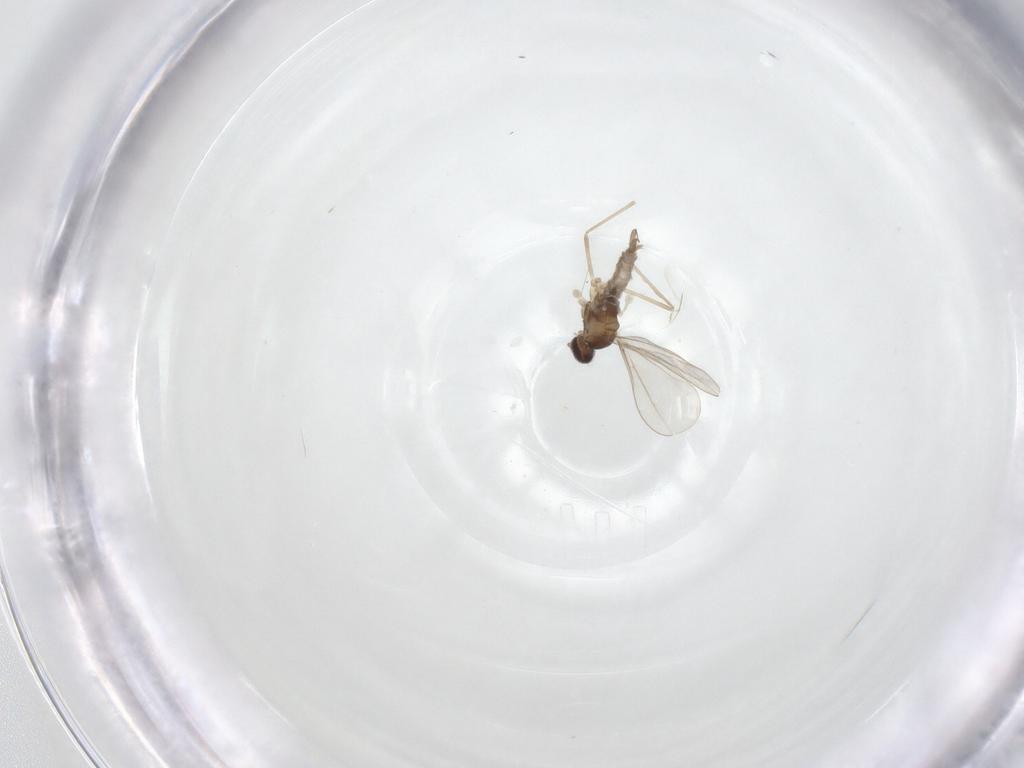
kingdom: Animalia
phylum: Arthropoda
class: Insecta
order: Diptera
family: Cecidomyiidae
